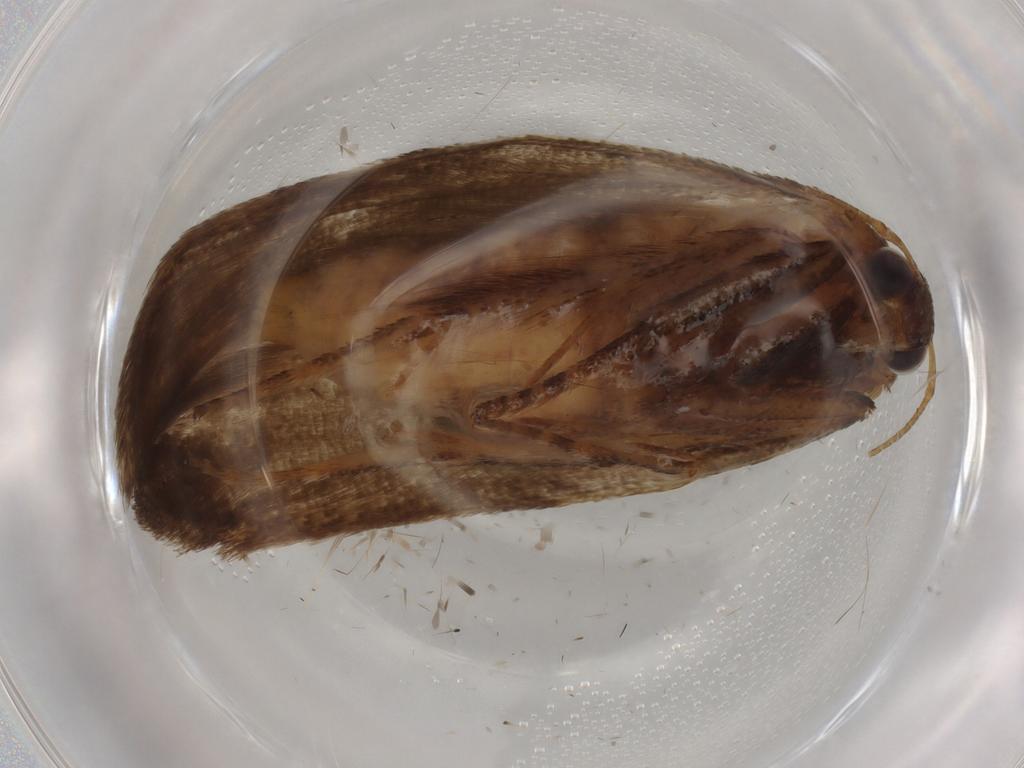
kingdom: Animalia
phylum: Arthropoda
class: Insecta
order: Lepidoptera
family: Blastobasidae
